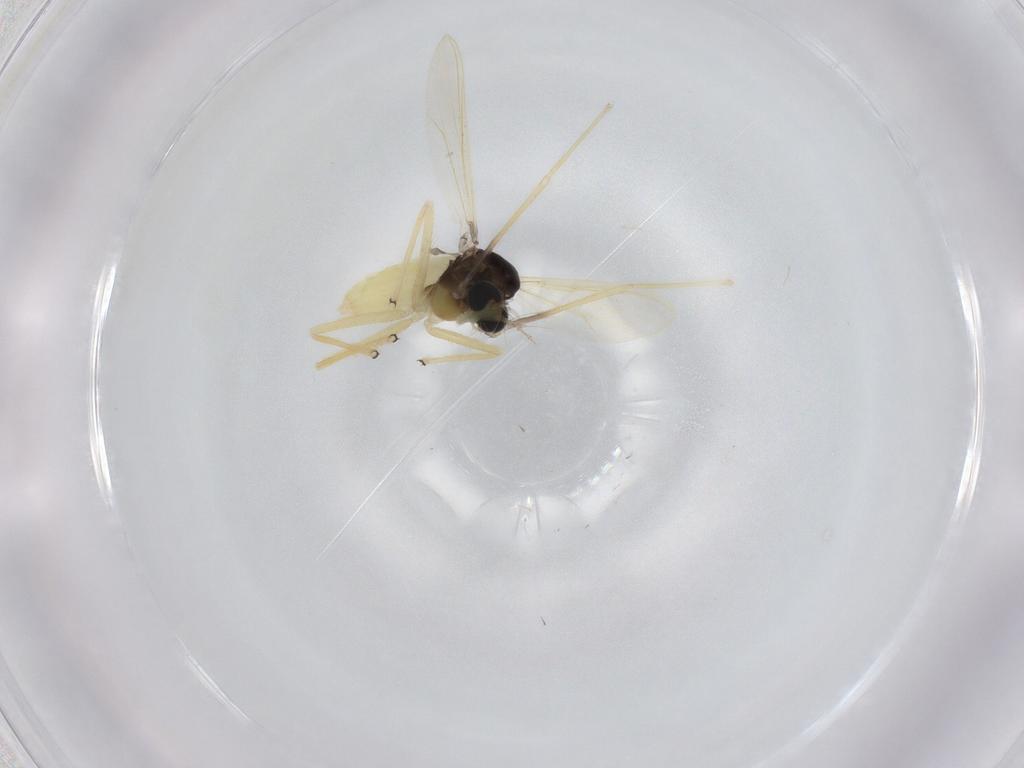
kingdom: Animalia
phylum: Arthropoda
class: Insecta
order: Diptera
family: Chironomidae
